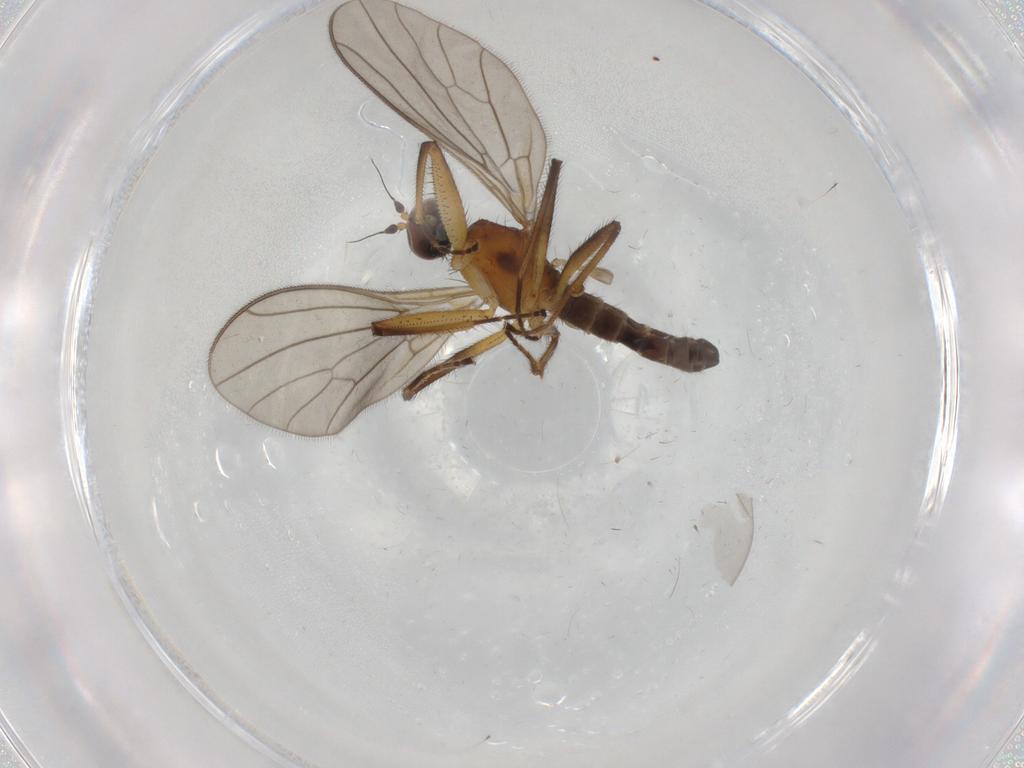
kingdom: Animalia
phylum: Arthropoda
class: Insecta
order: Diptera
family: Empididae
